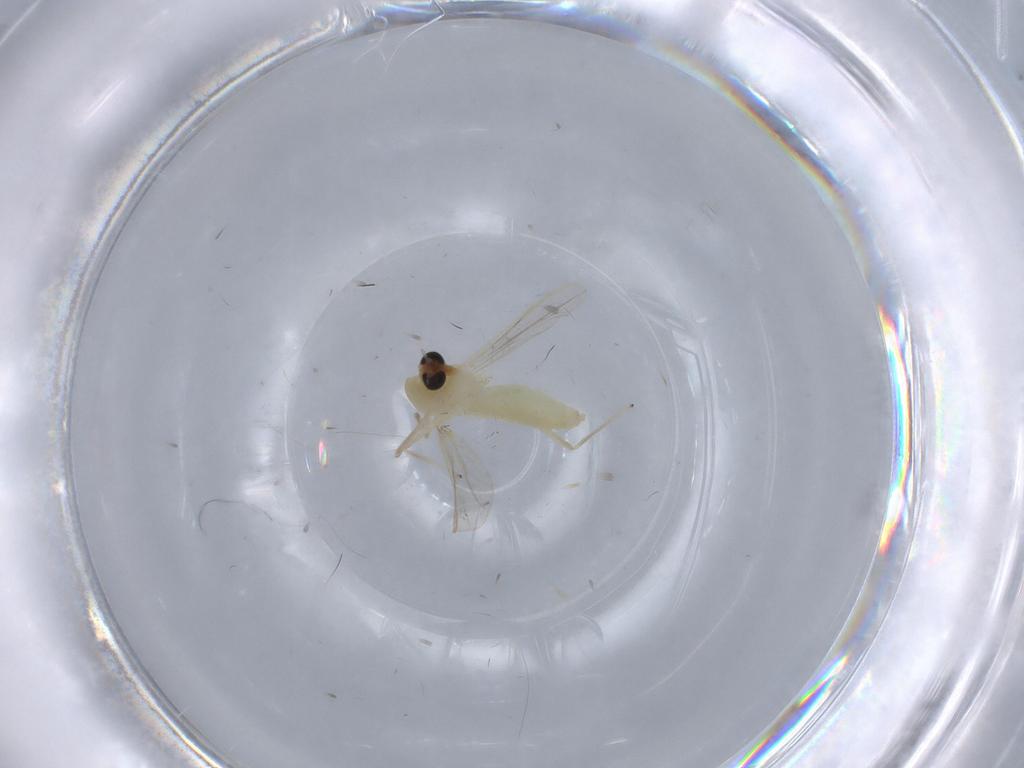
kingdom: Animalia
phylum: Arthropoda
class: Insecta
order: Diptera
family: Chironomidae
